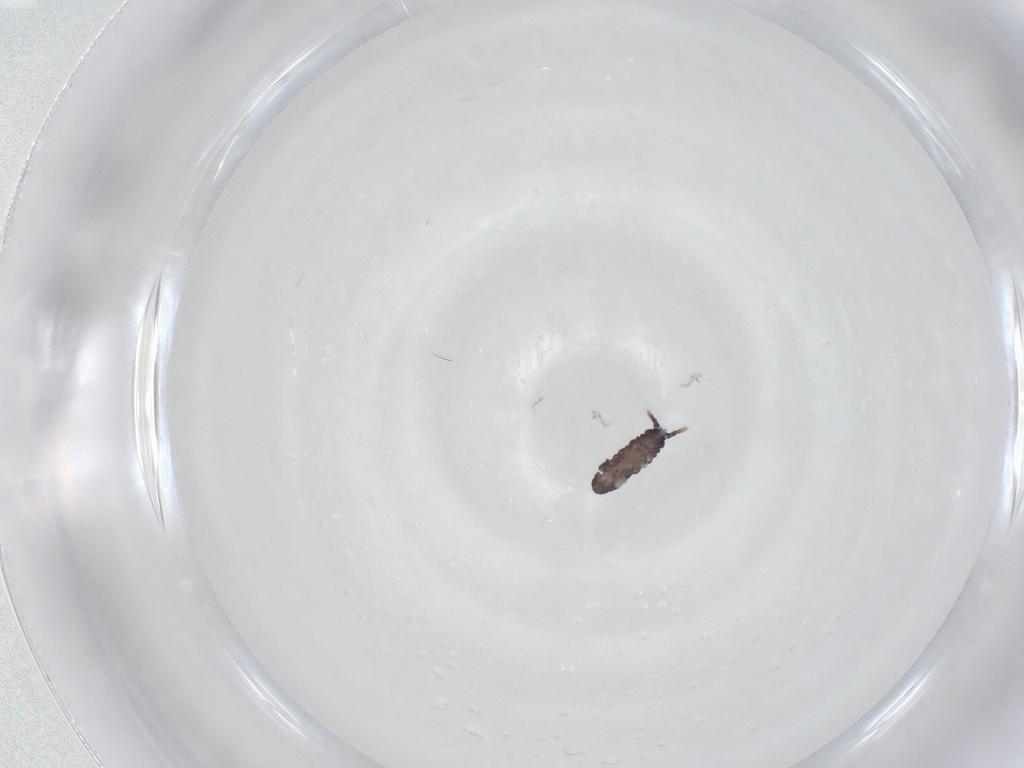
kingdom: Animalia
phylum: Arthropoda
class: Collembola
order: Poduromorpha
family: Neanuridae
